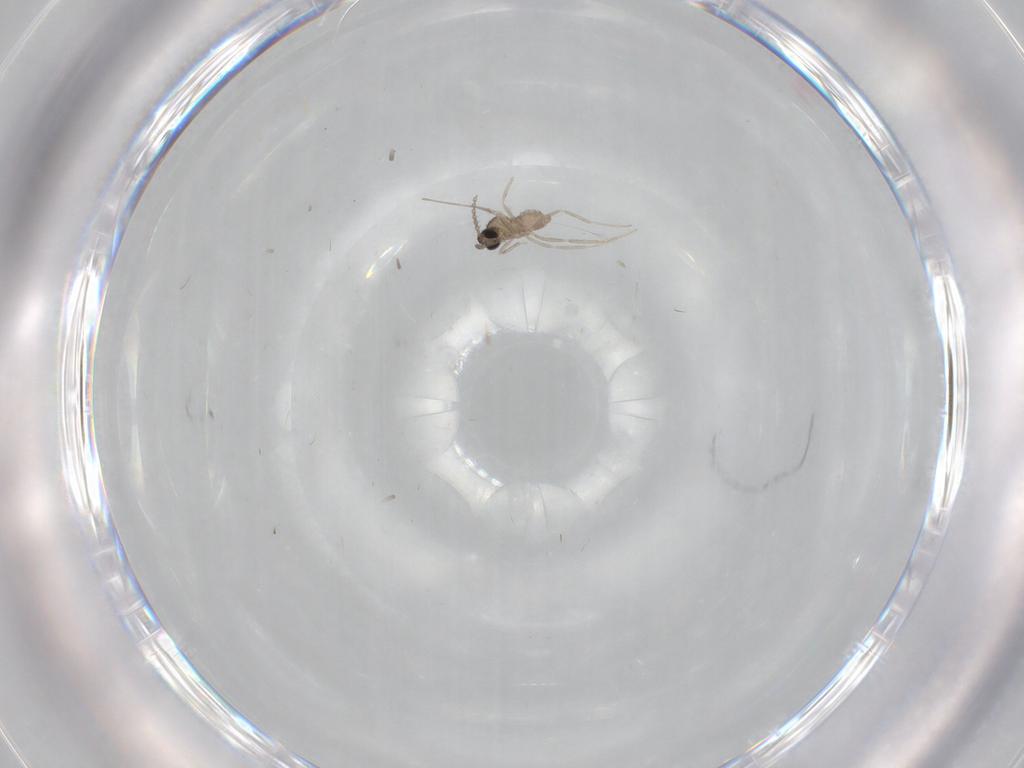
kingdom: Animalia
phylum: Arthropoda
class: Insecta
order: Diptera
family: Cecidomyiidae
